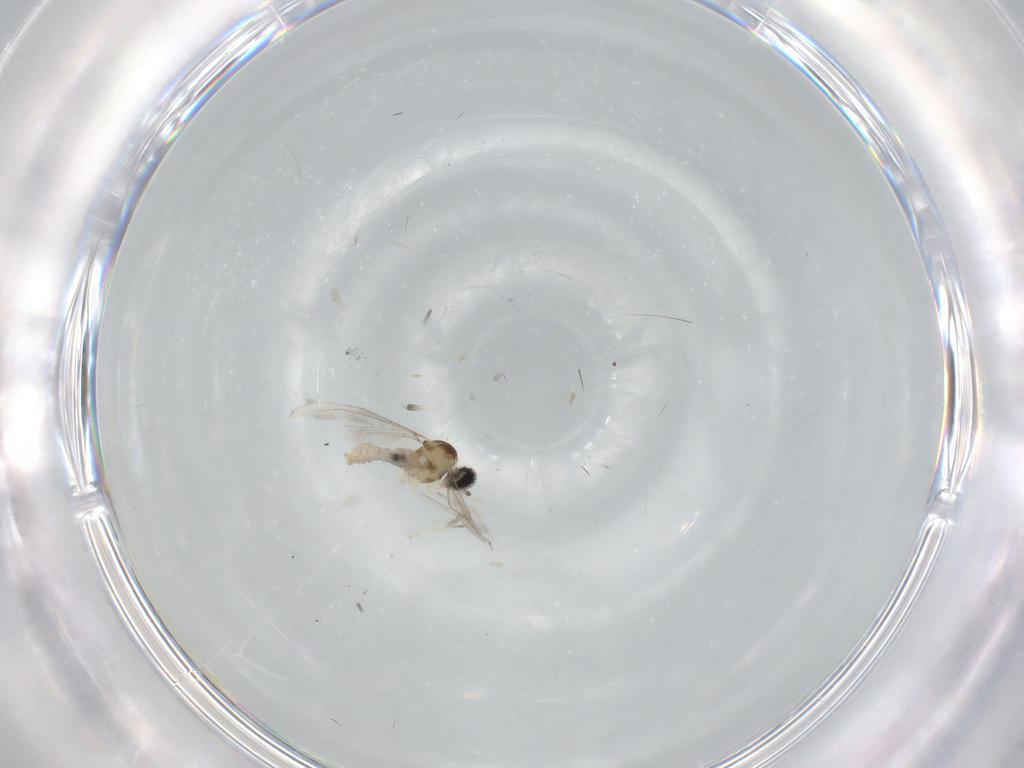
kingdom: Animalia
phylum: Arthropoda
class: Insecta
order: Diptera
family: Cecidomyiidae
